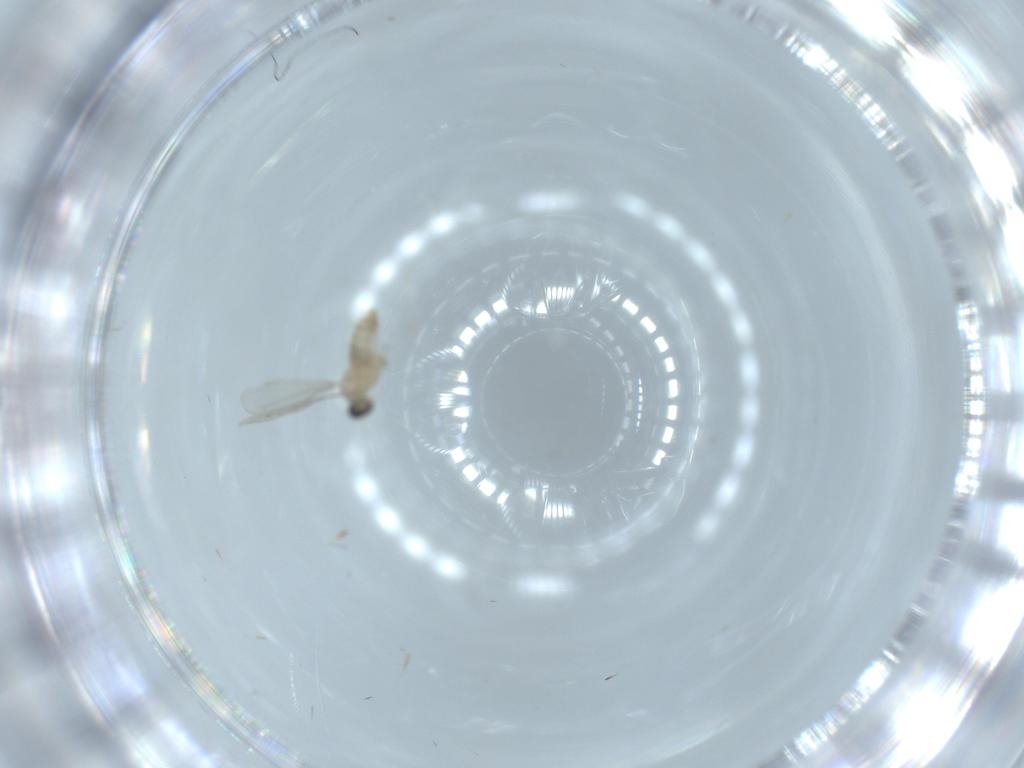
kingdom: Animalia
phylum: Arthropoda
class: Insecta
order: Diptera
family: Cecidomyiidae
